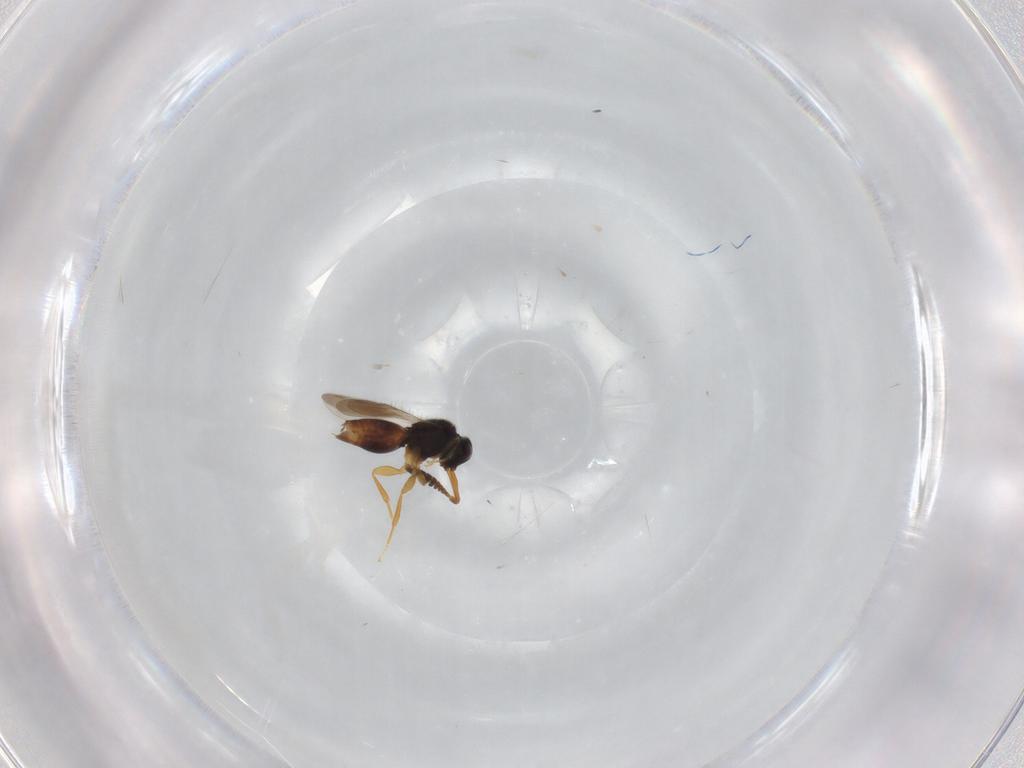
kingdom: Animalia
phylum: Arthropoda
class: Insecta
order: Hymenoptera
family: Braconidae
